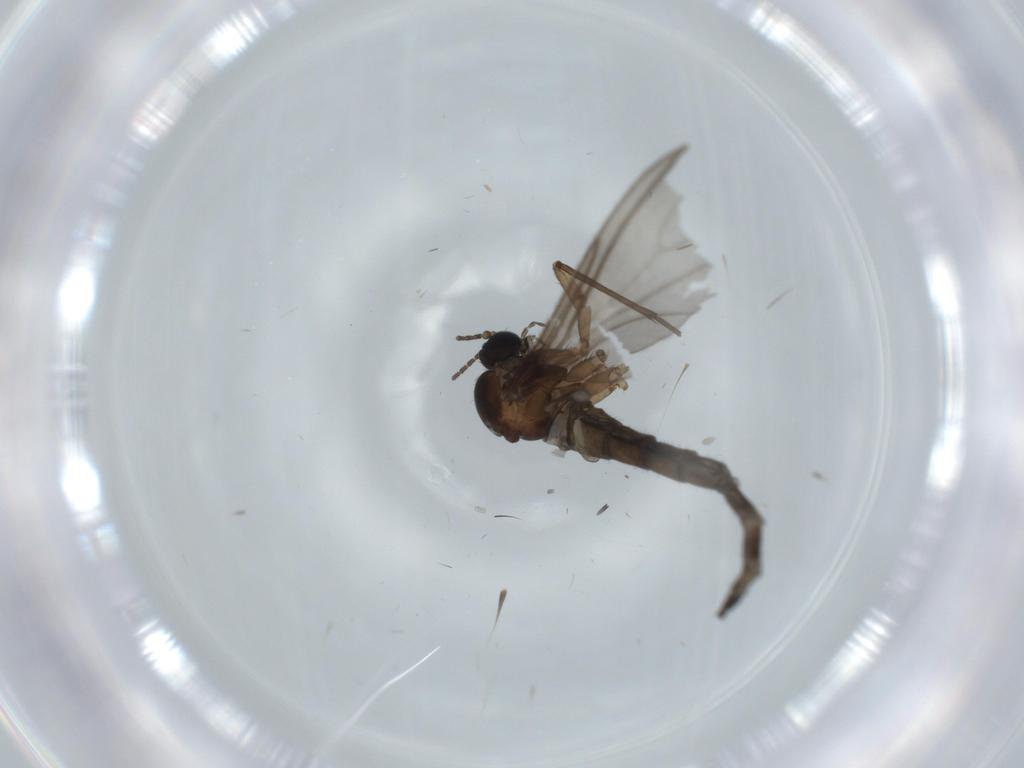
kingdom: Animalia
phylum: Arthropoda
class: Insecta
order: Diptera
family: Sciaridae
